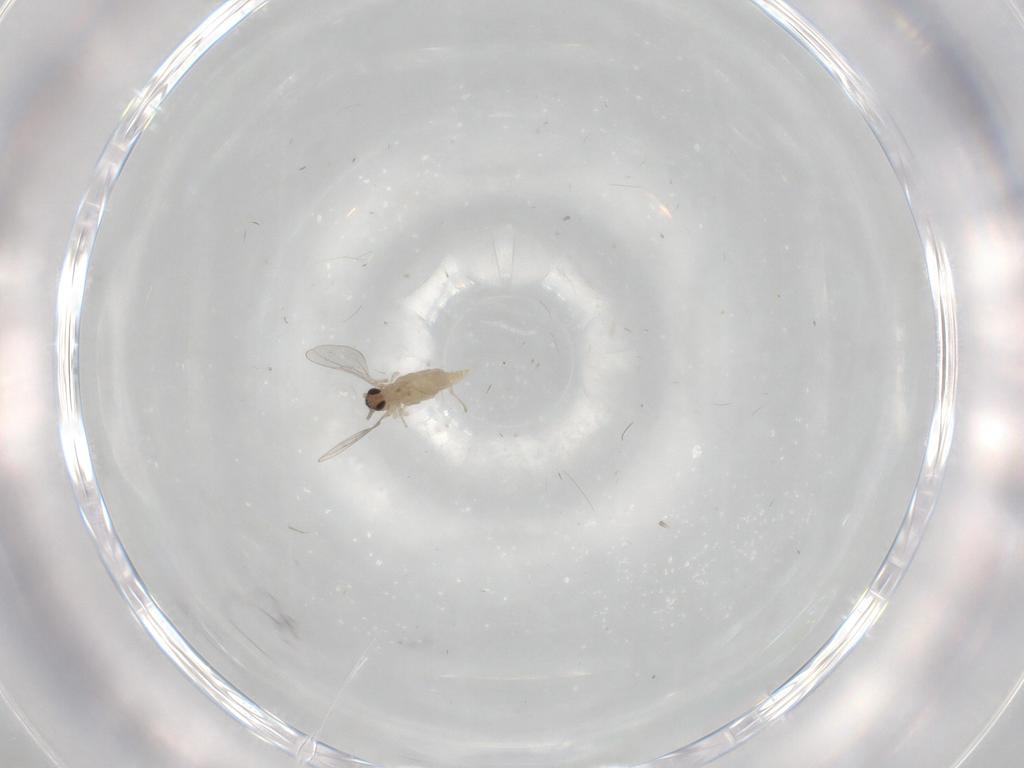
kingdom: Animalia
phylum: Arthropoda
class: Insecta
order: Diptera
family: Cecidomyiidae
